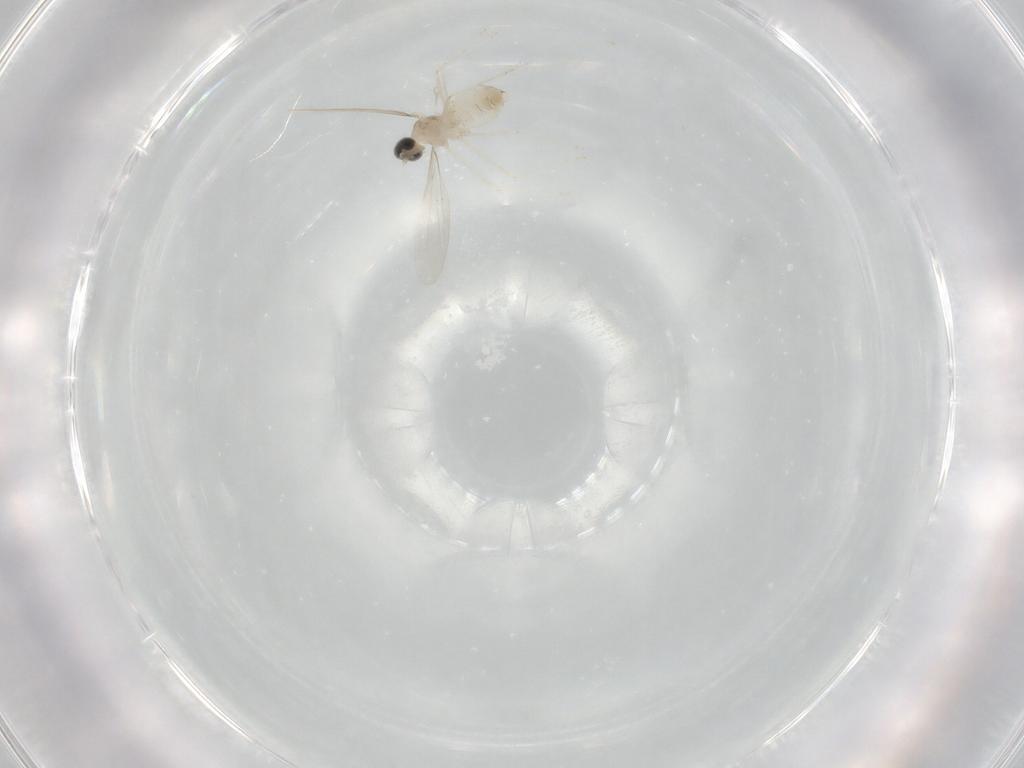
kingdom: Animalia
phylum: Arthropoda
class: Insecta
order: Diptera
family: Cecidomyiidae
